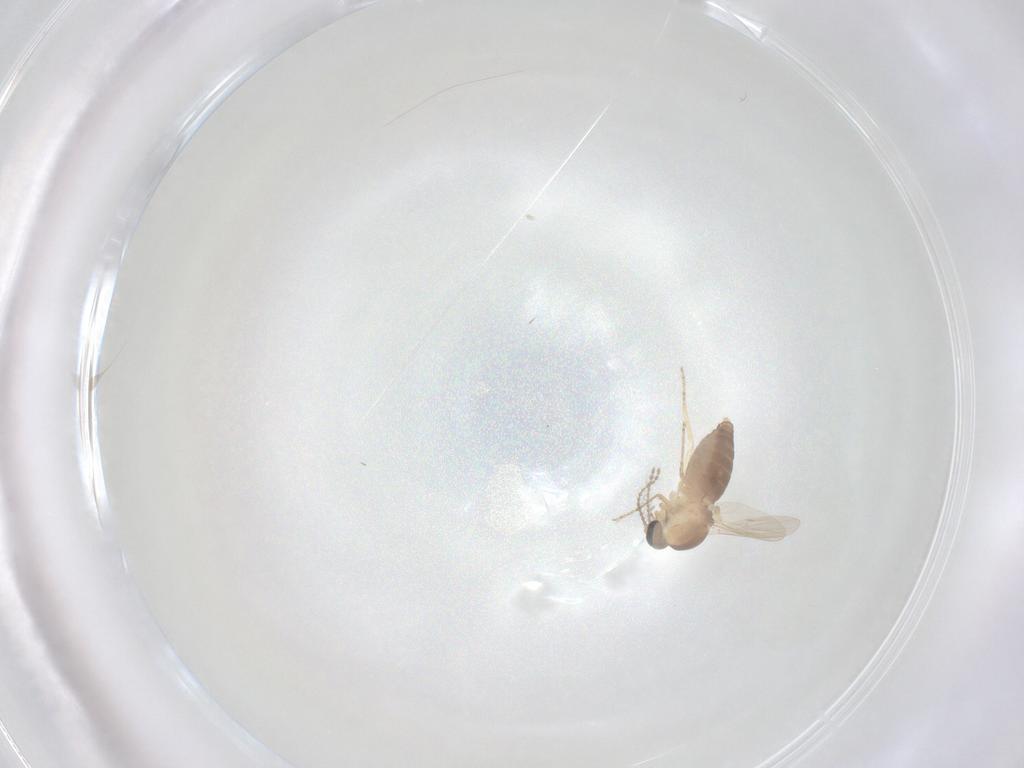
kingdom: Animalia
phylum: Arthropoda
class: Insecta
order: Diptera
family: Ceratopogonidae
